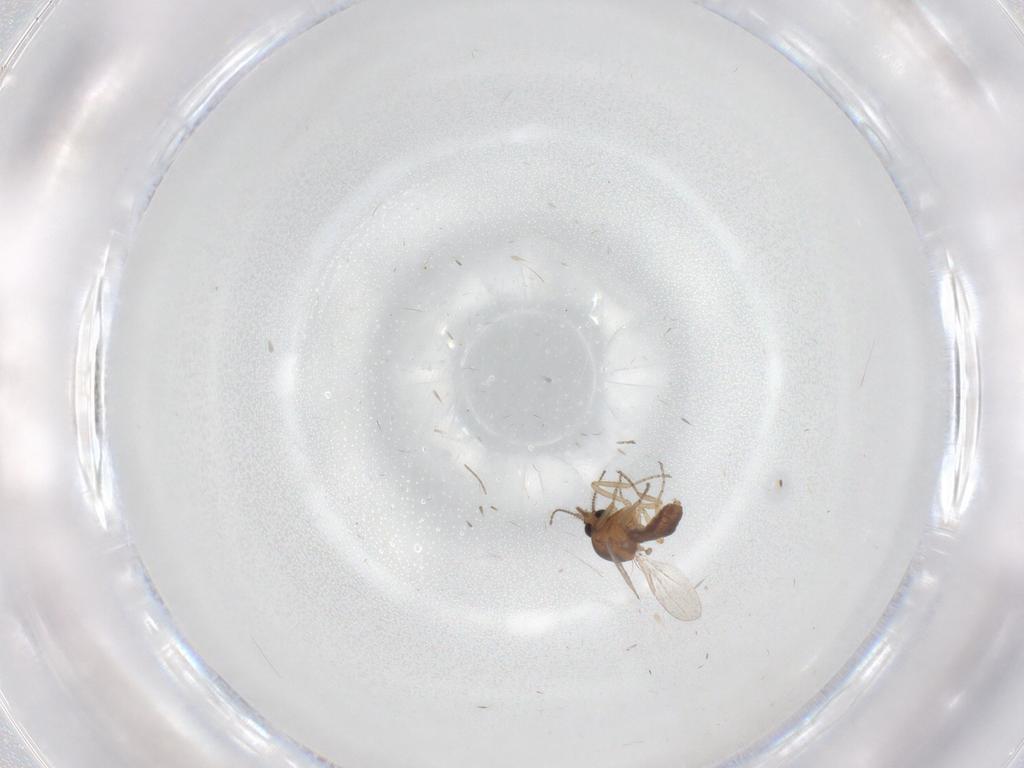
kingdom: Animalia
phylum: Arthropoda
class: Insecta
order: Diptera
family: Ceratopogonidae
